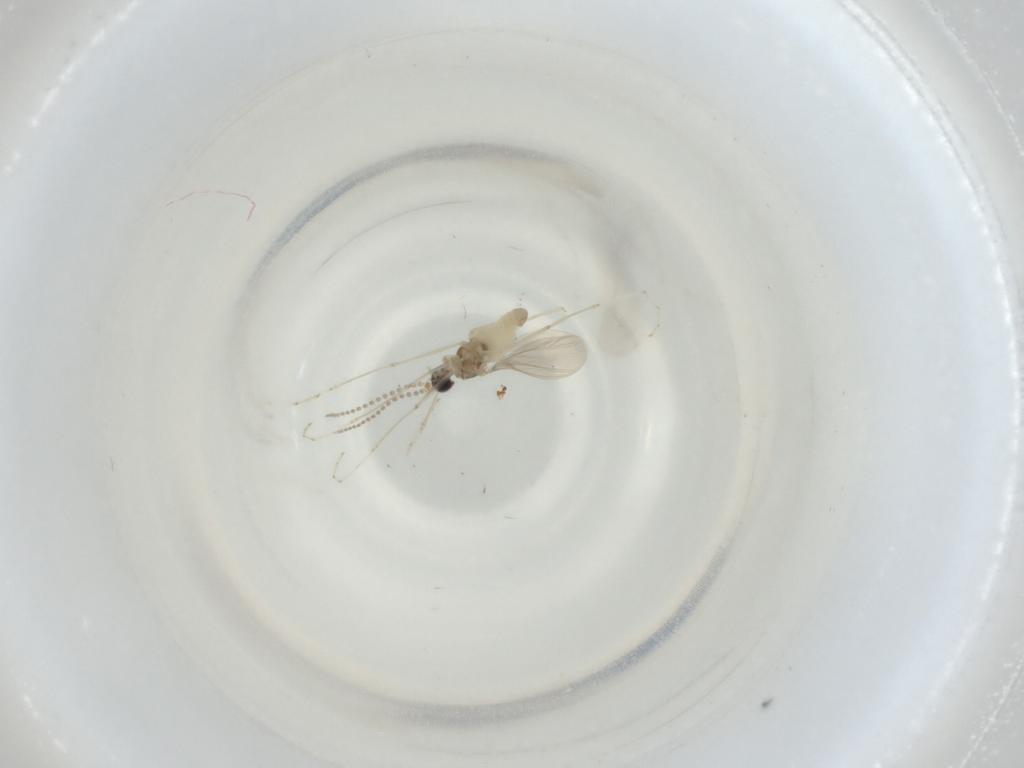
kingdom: Animalia
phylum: Arthropoda
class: Insecta
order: Diptera
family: Cecidomyiidae
